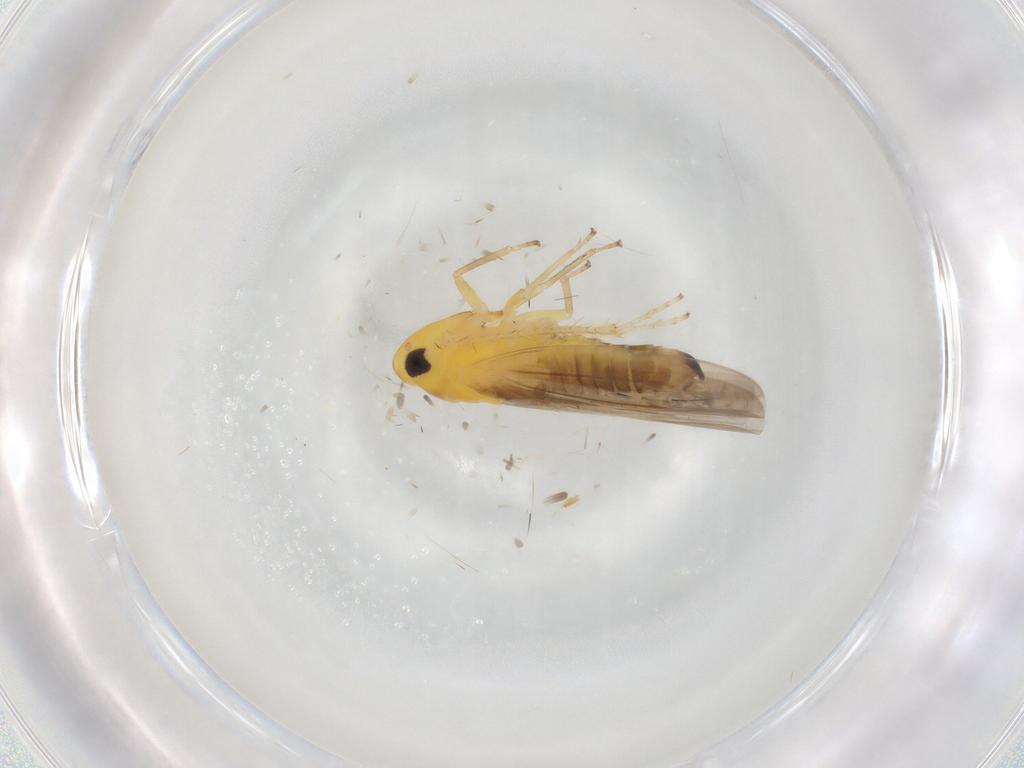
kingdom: Animalia
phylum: Arthropoda
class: Insecta
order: Hemiptera
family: Cicadellidae
